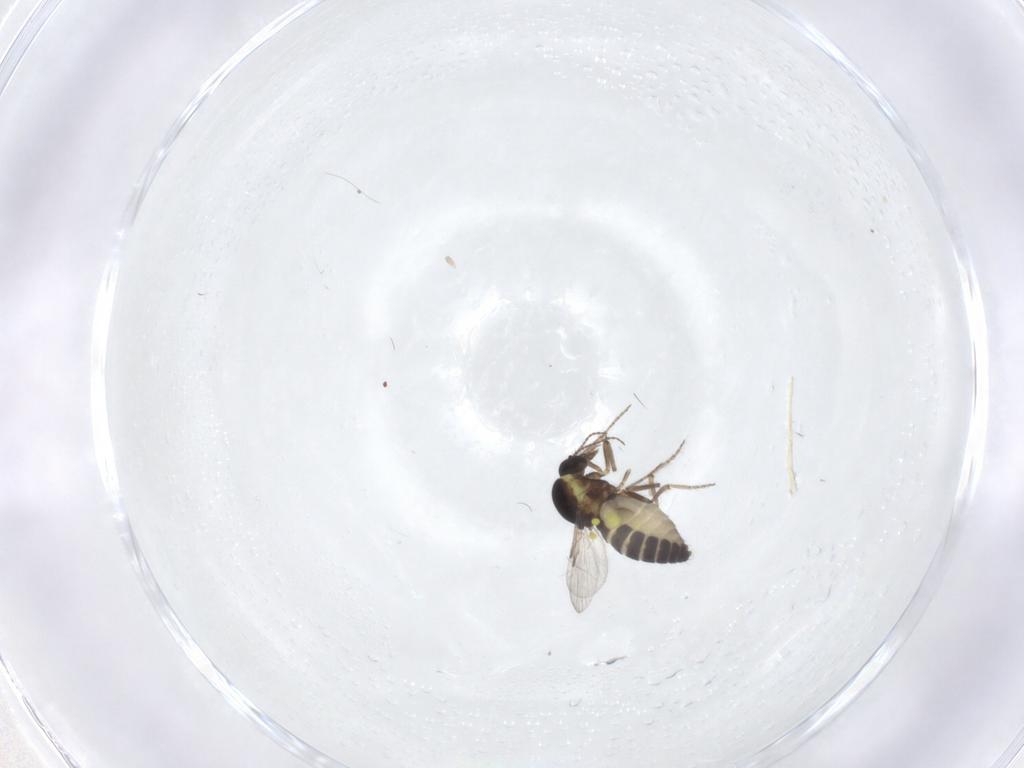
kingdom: Animalia
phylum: Arthropoda
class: Insecta
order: Diptera
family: Ceratopogonidae
